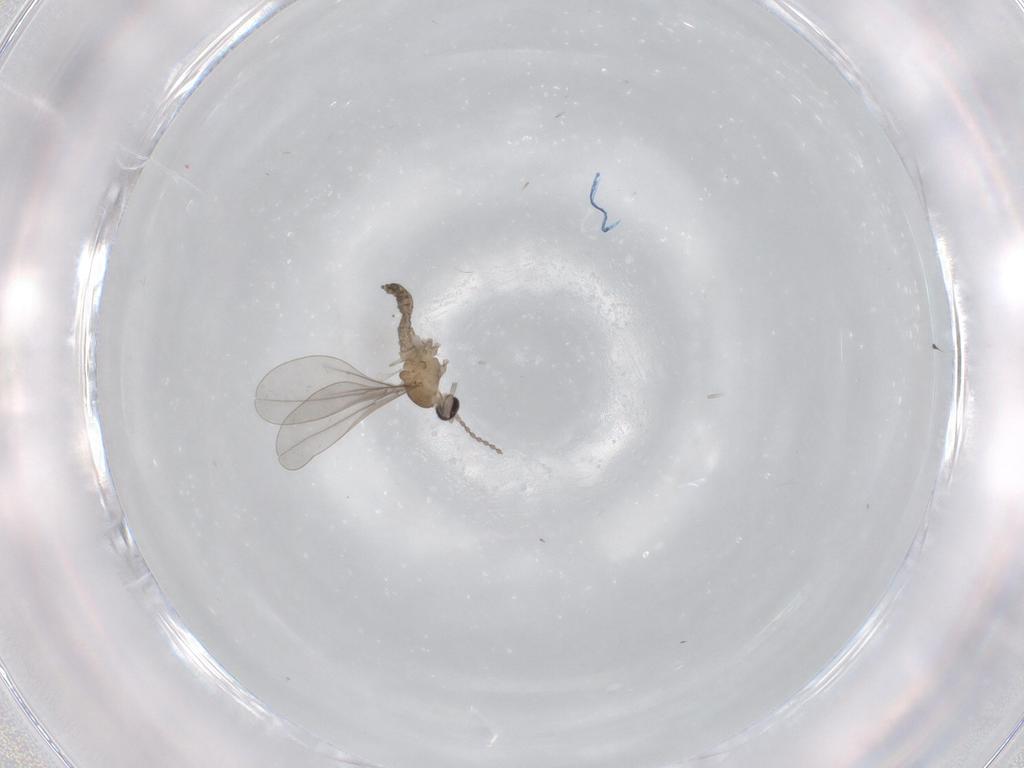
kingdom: Animalia
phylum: Arthropoda
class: Insecta
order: Diptera
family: Cecidomyiidae
